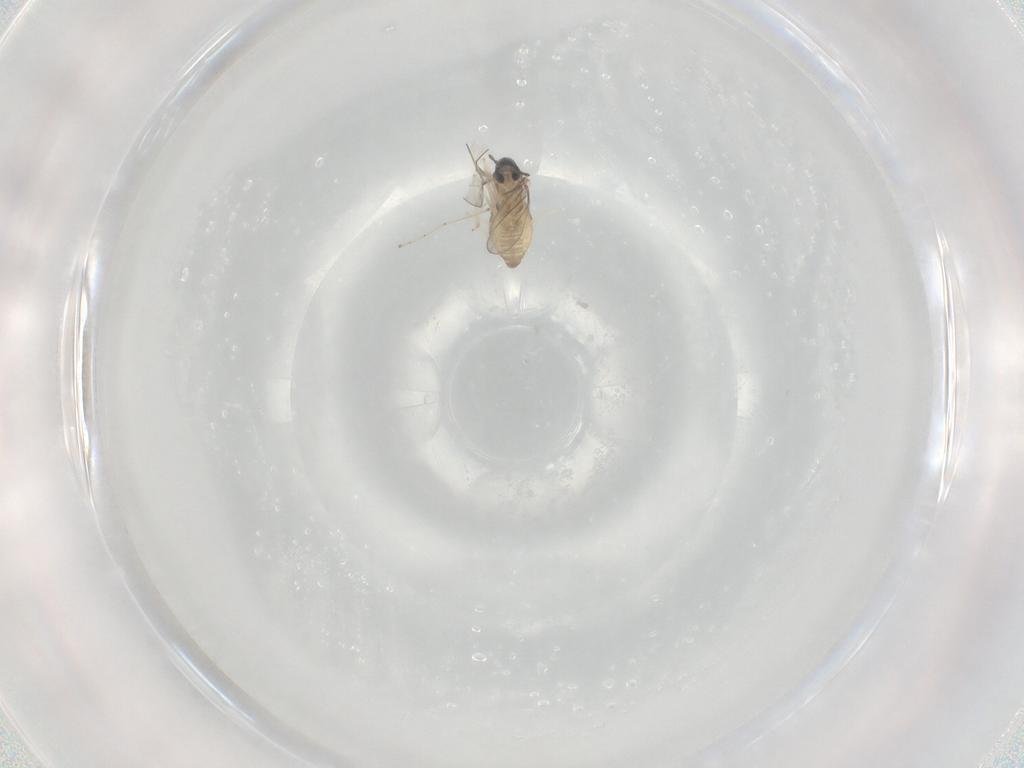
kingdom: Animalia
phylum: Arthropoda
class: Insecta
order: Diptera
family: Cecidomyiidae
